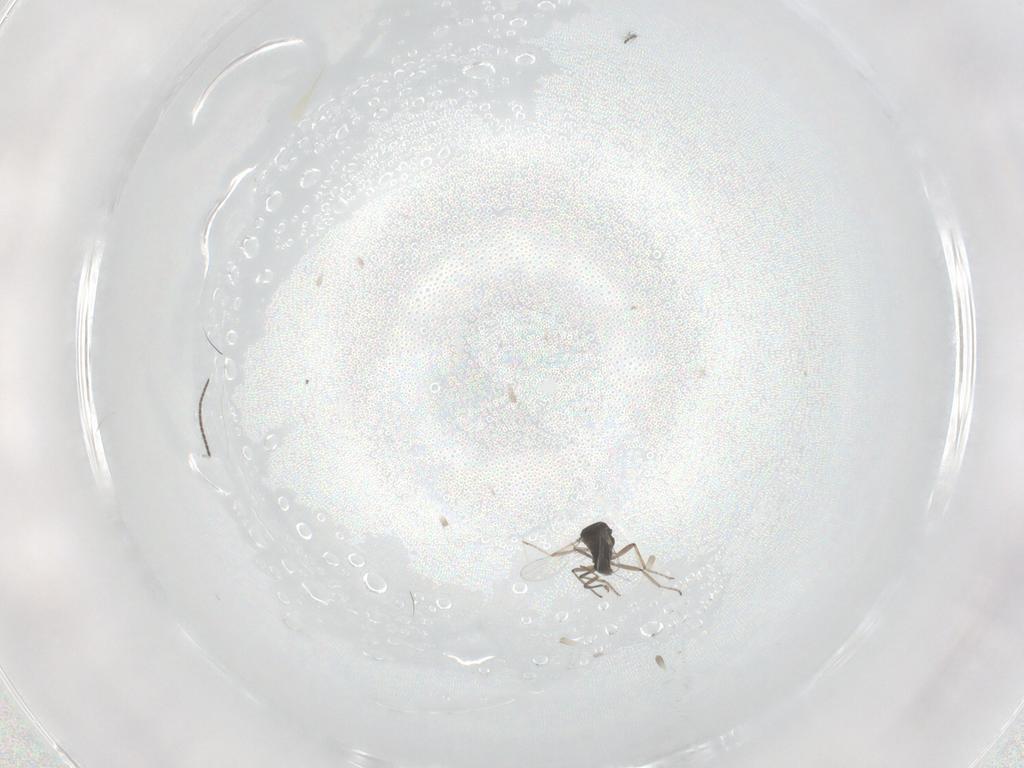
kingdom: Animalia
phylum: Arthropoda
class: Insecta
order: Diptera
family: Ceratopogonidae
